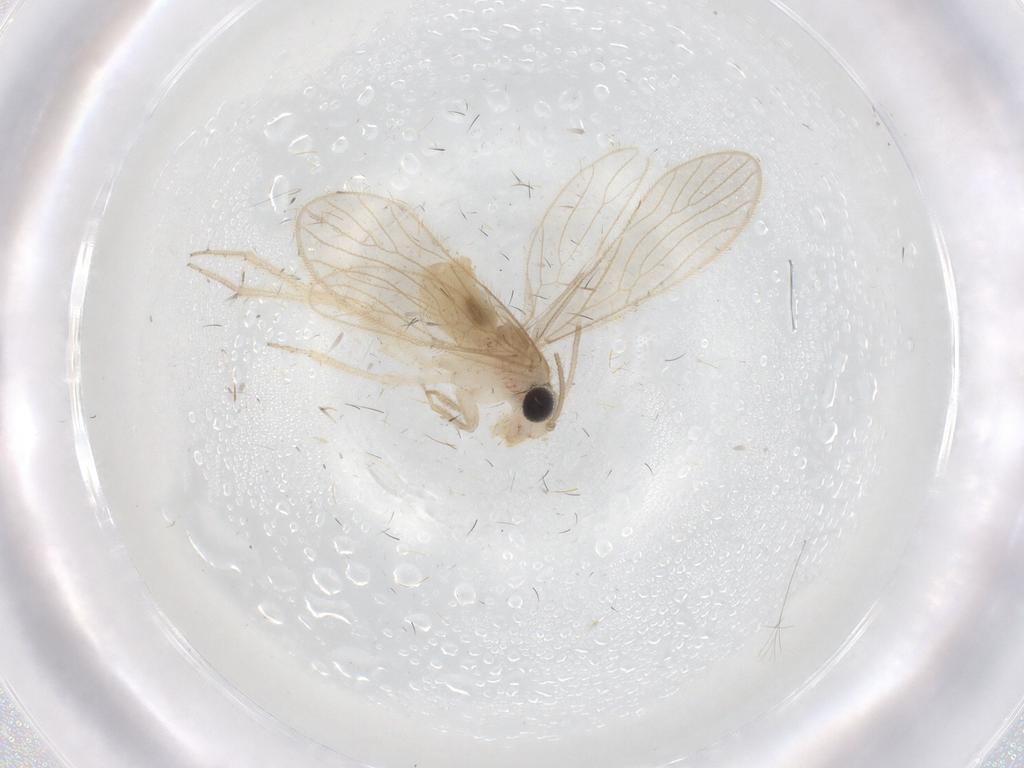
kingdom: Animalia
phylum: Arthropoda
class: Insecta
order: Psocodea
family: Cladiopsocidae
